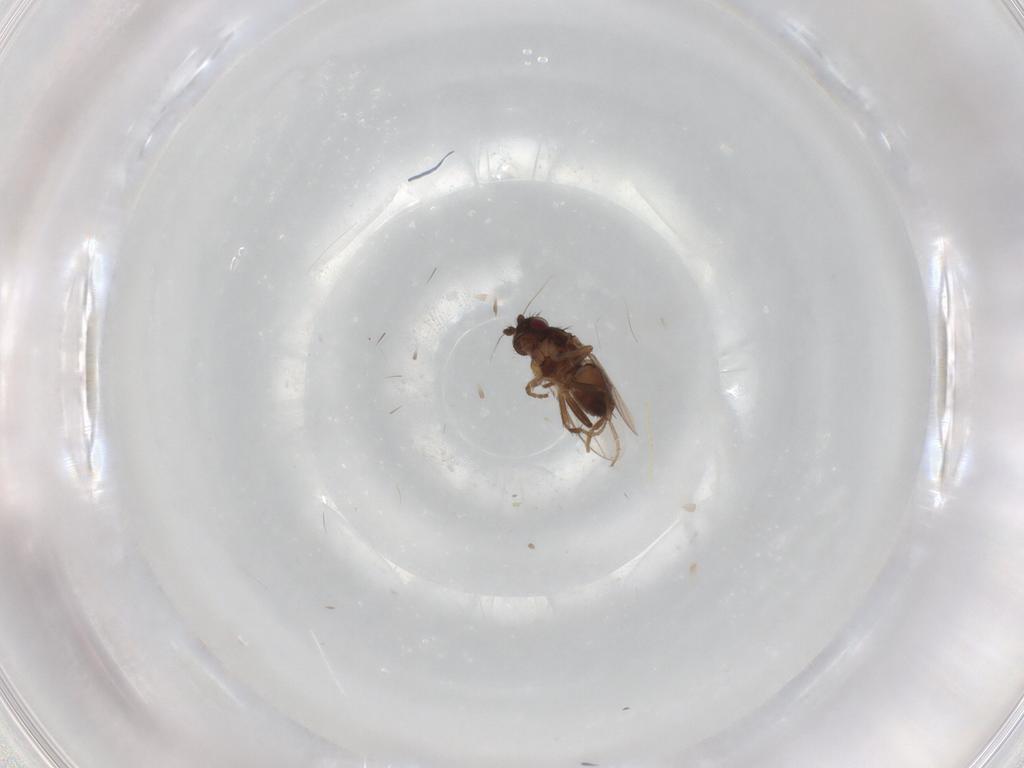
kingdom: Animalia
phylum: Arthropoda
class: Insecta
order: Diptera
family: Sphaeroceridae
